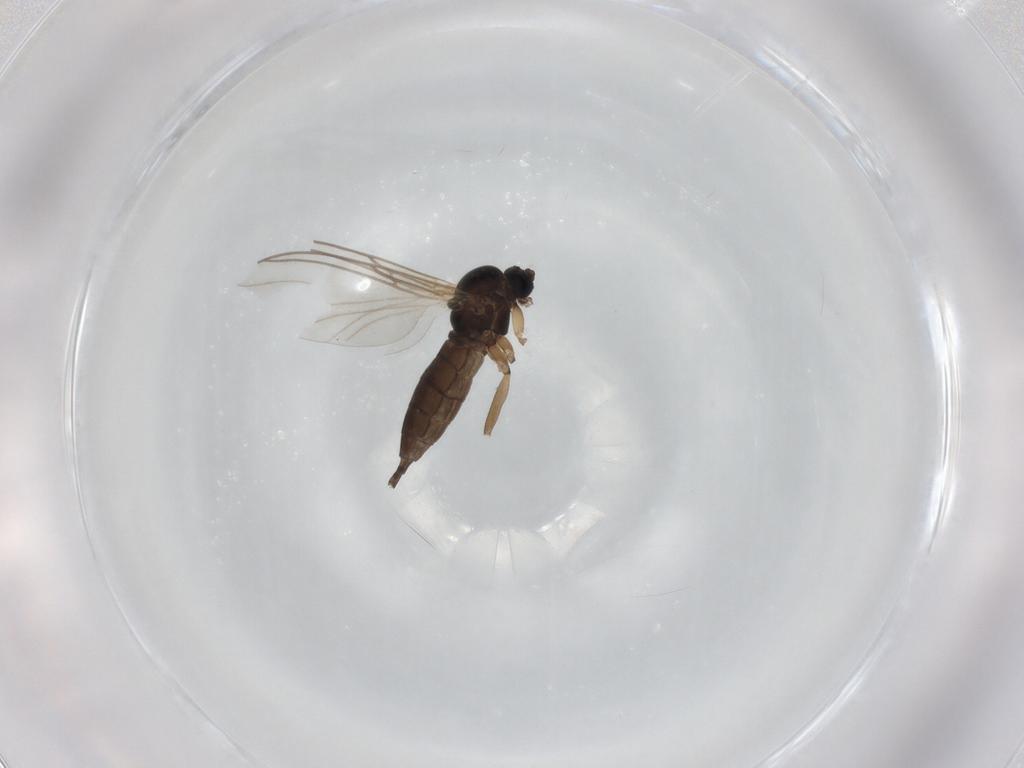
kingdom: Animalia
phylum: Arthropoda
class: Insecta
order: Diptera
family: Sciaridae
